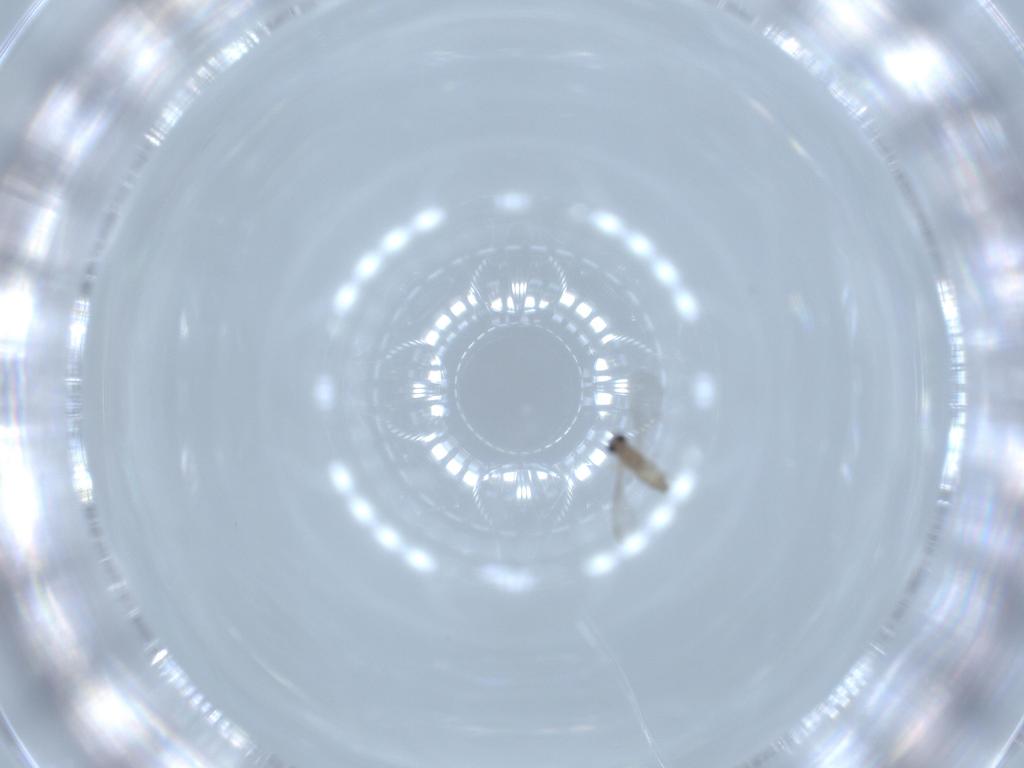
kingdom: Animalia
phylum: Arthropoda
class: Insecta
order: Diptera
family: Cecidomyiidae
